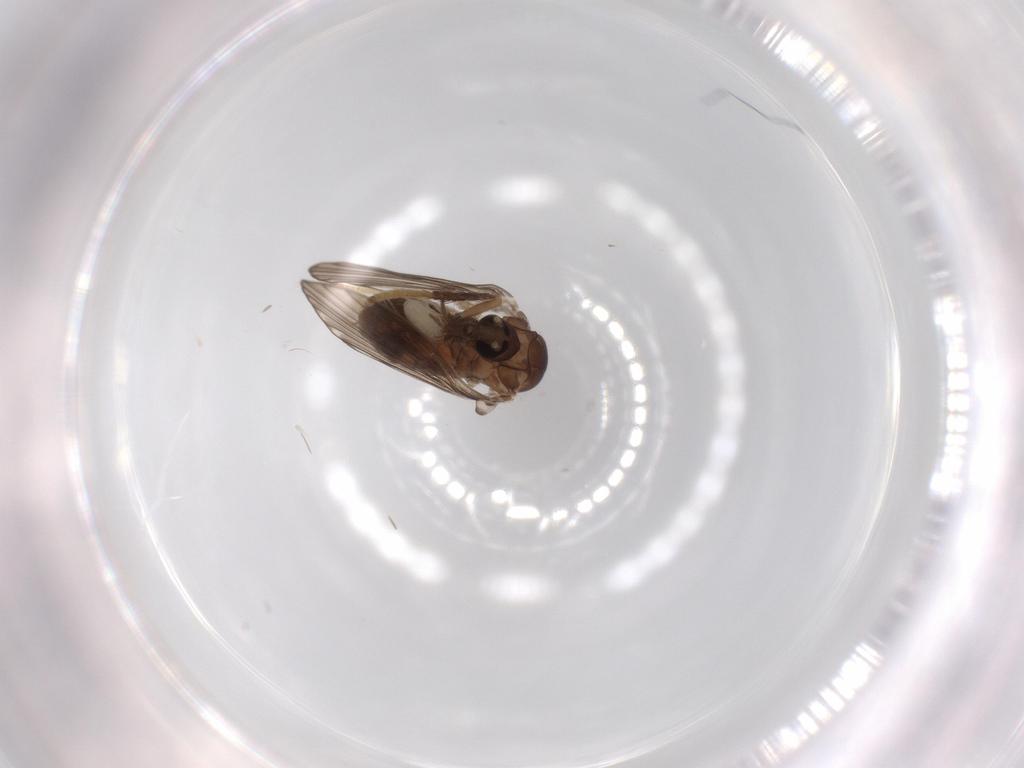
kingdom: Animalia
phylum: Arthropoda
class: Insecta
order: Diptera
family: Psychodidae
